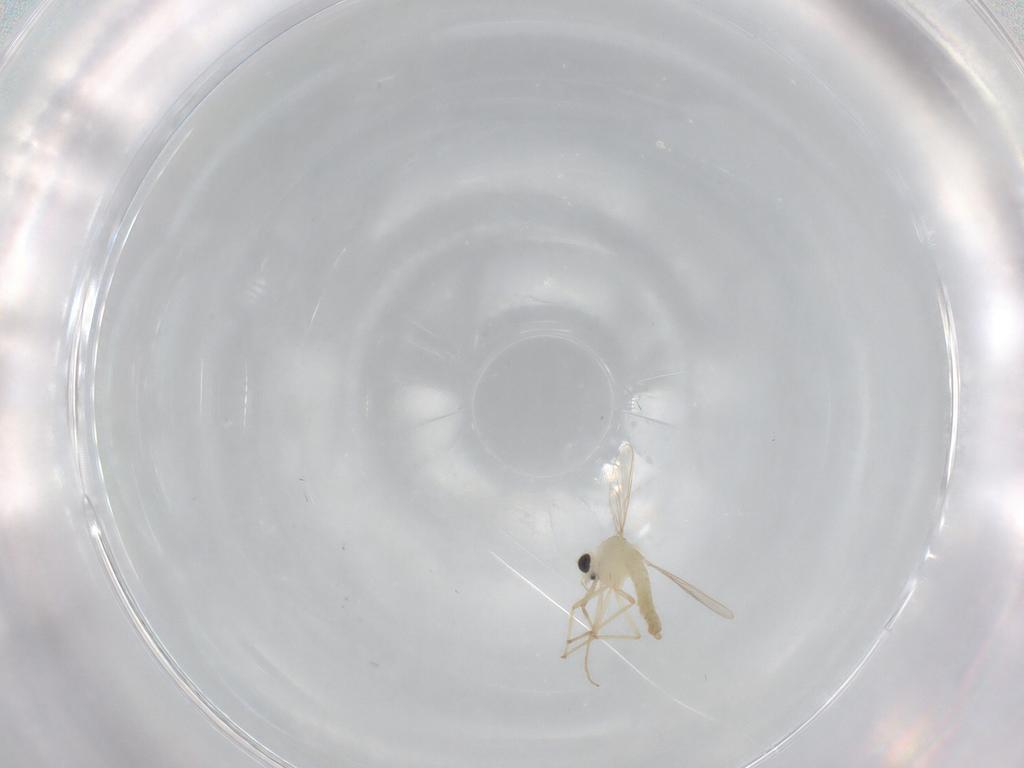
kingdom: Animalia
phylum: Arthropoda
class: Insecta
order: Diptera
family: Chironomidae
